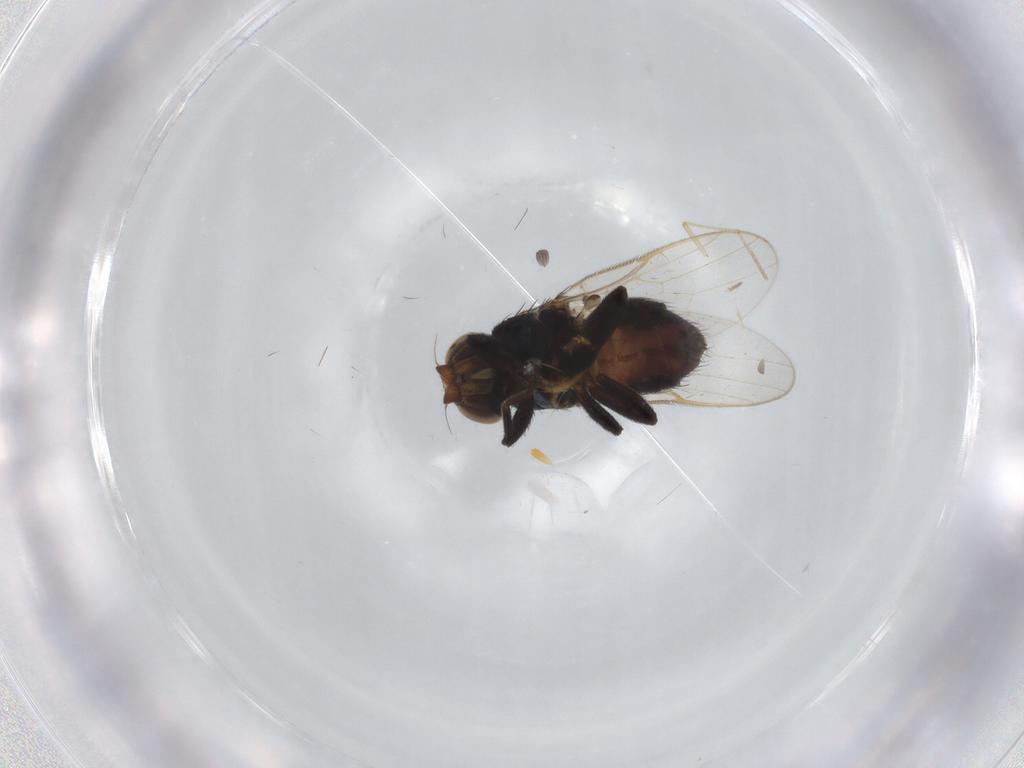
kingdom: Animalia
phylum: Arthropoda
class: Insecta
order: Diptera
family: Chloropidae
